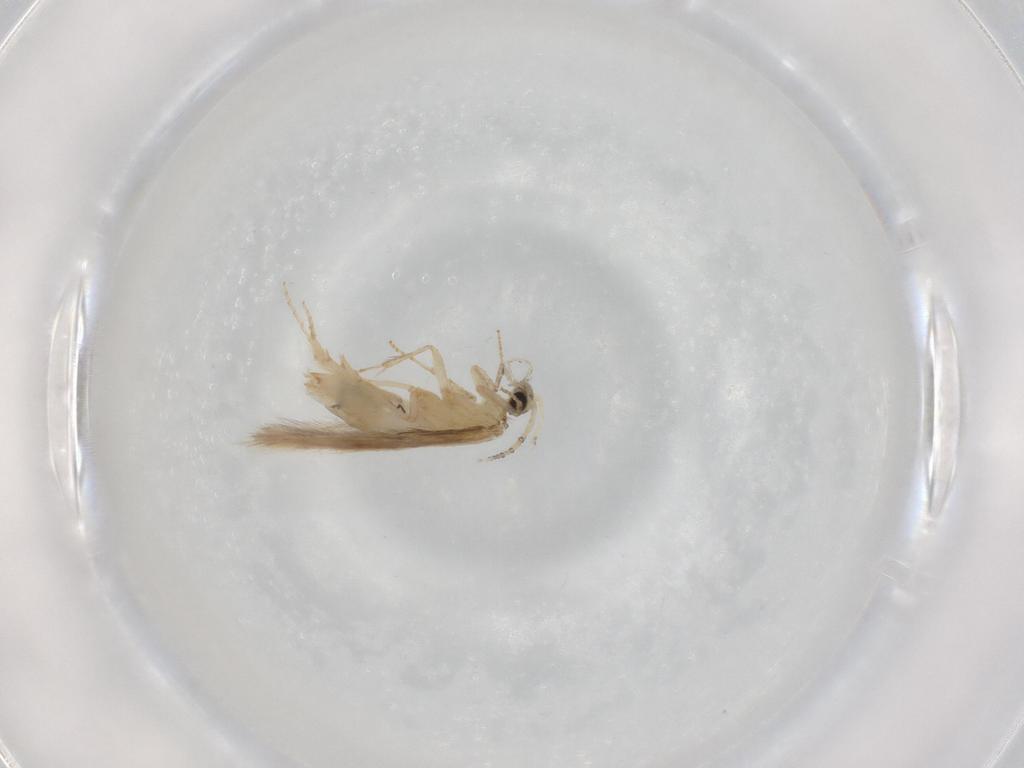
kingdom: Animalia
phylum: Arthropoda
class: Insecta
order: Trichoptera
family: Hydroptilidae
